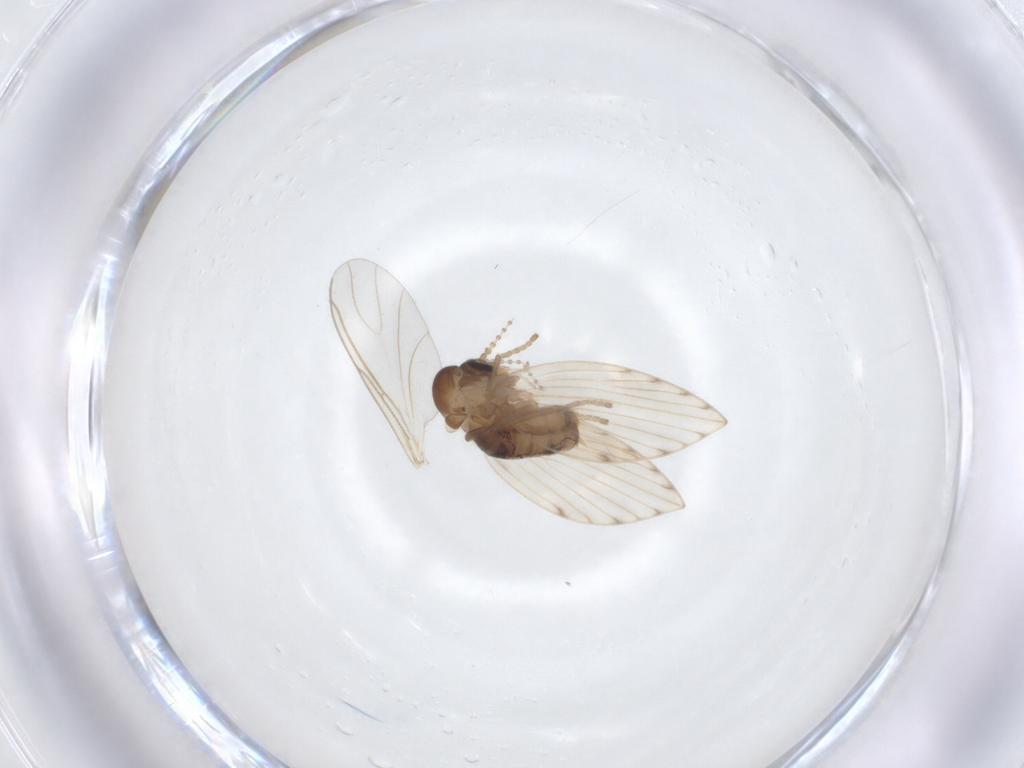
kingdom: Animalia
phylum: Arthropoda
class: Insecta
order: Diptera
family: Psychodidae
